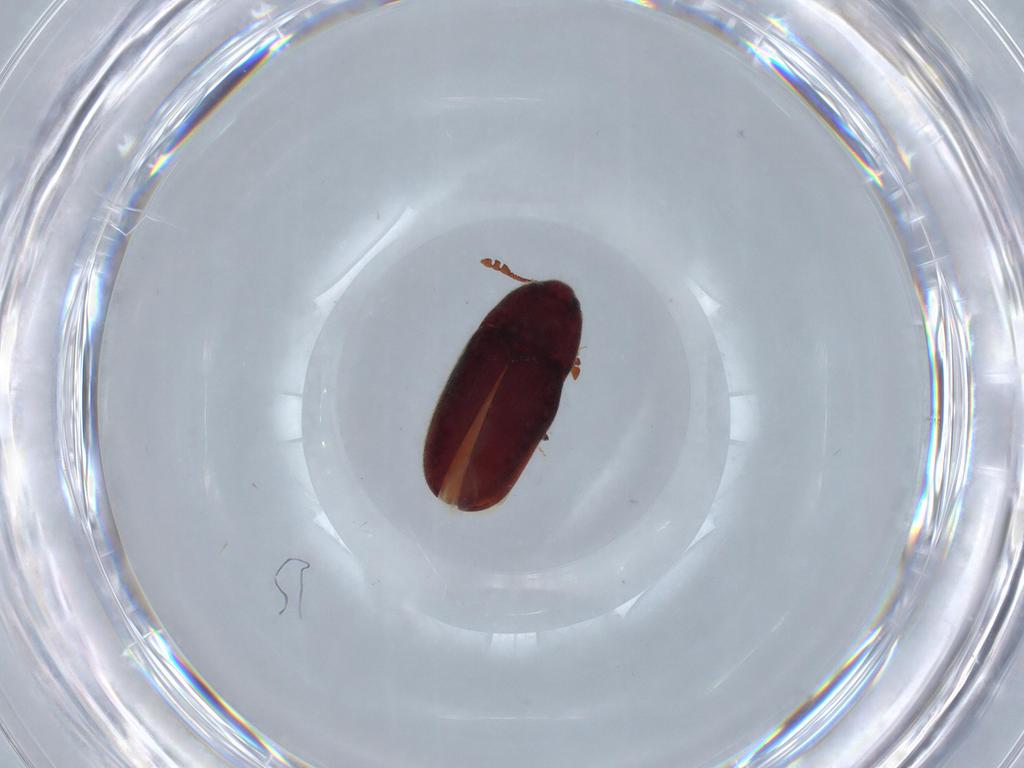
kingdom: Animalia
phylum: Arthropoda
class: Insecta
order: Coleoptera
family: Throscidae
